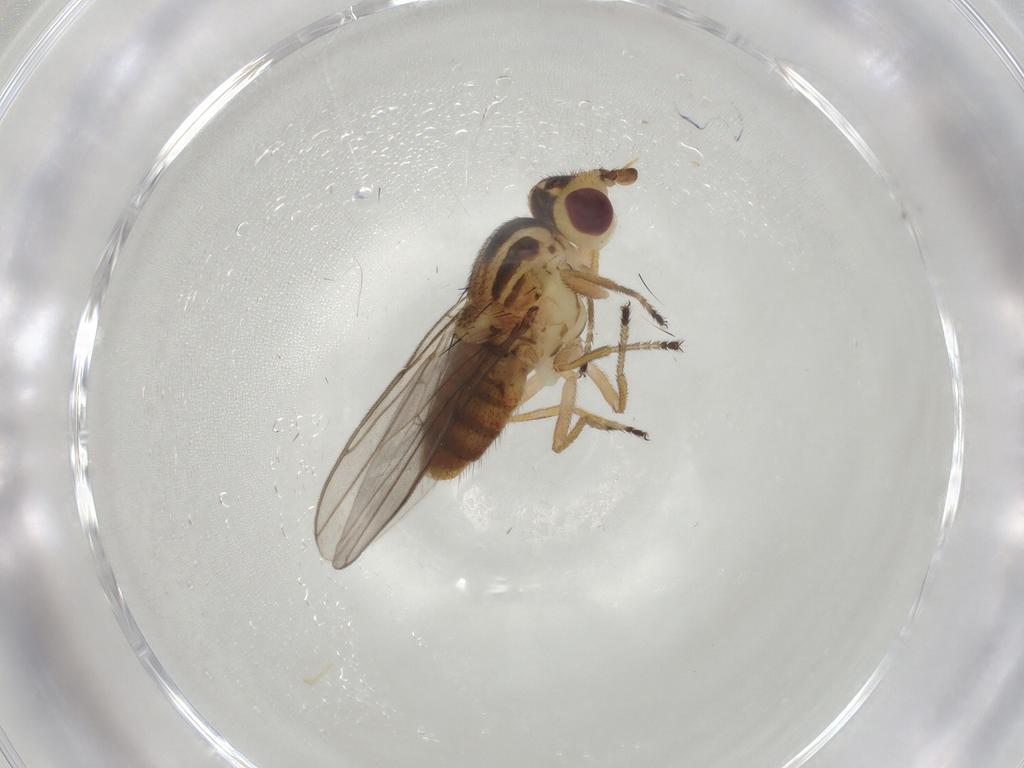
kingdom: Animalia
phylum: Arthropoda
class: Insecta
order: Diptera
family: Chloropidae
